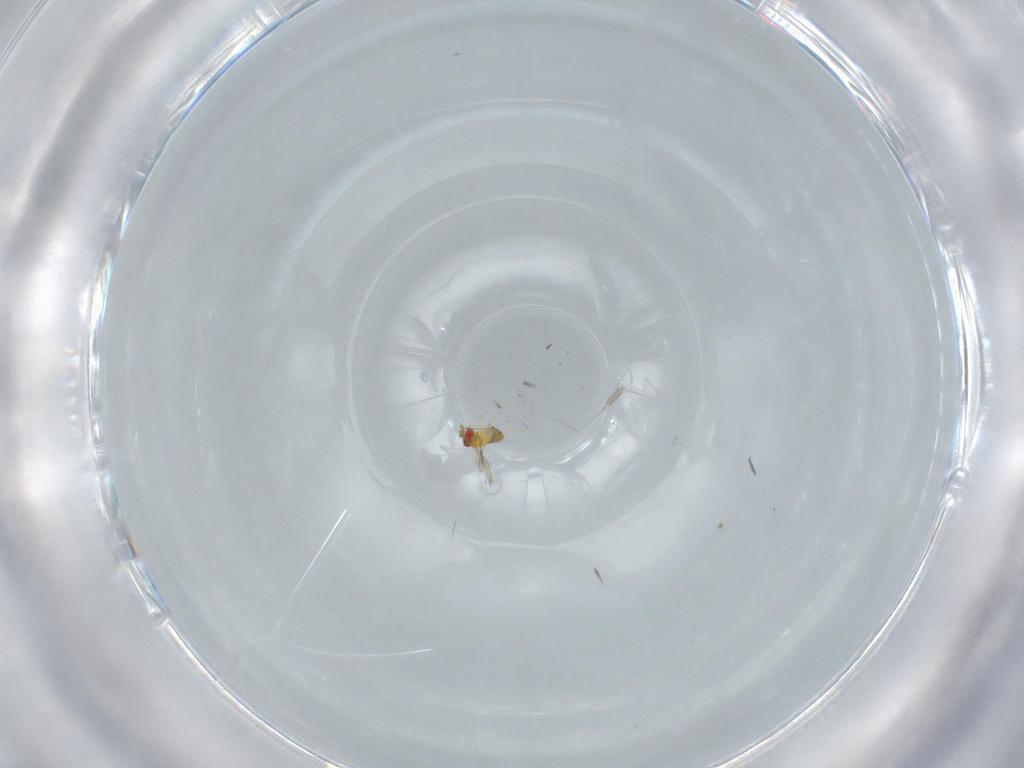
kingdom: Animalia
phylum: Arthropoda
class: Insecta
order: Hymenoptera
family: Trichogrammatidae
